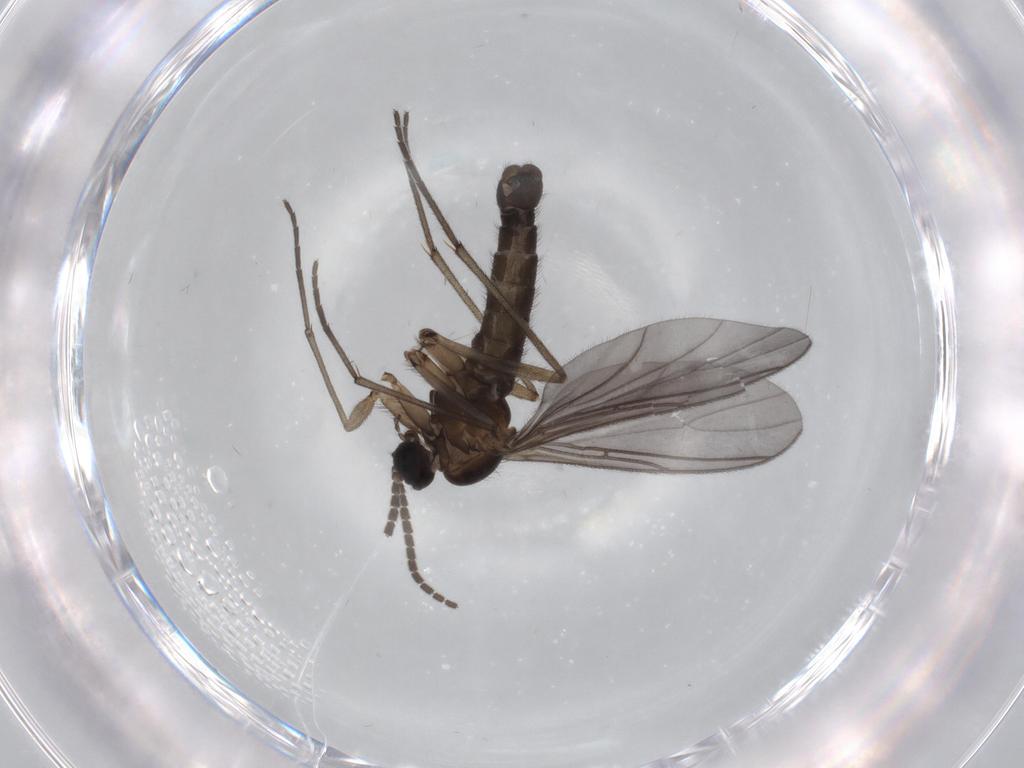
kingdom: Animalia
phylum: Arthropoda
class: Insecta
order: Diptera
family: Sciaridae
